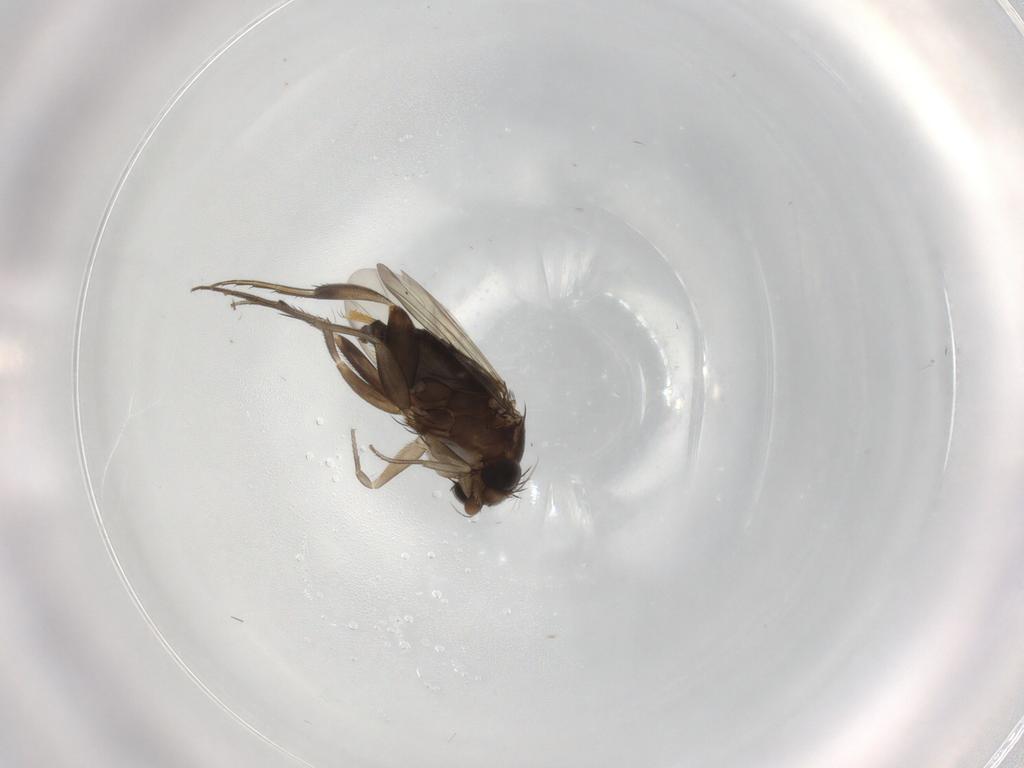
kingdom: Animalia
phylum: Arthropoda
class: Insecta
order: Diptera
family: Phoridae
